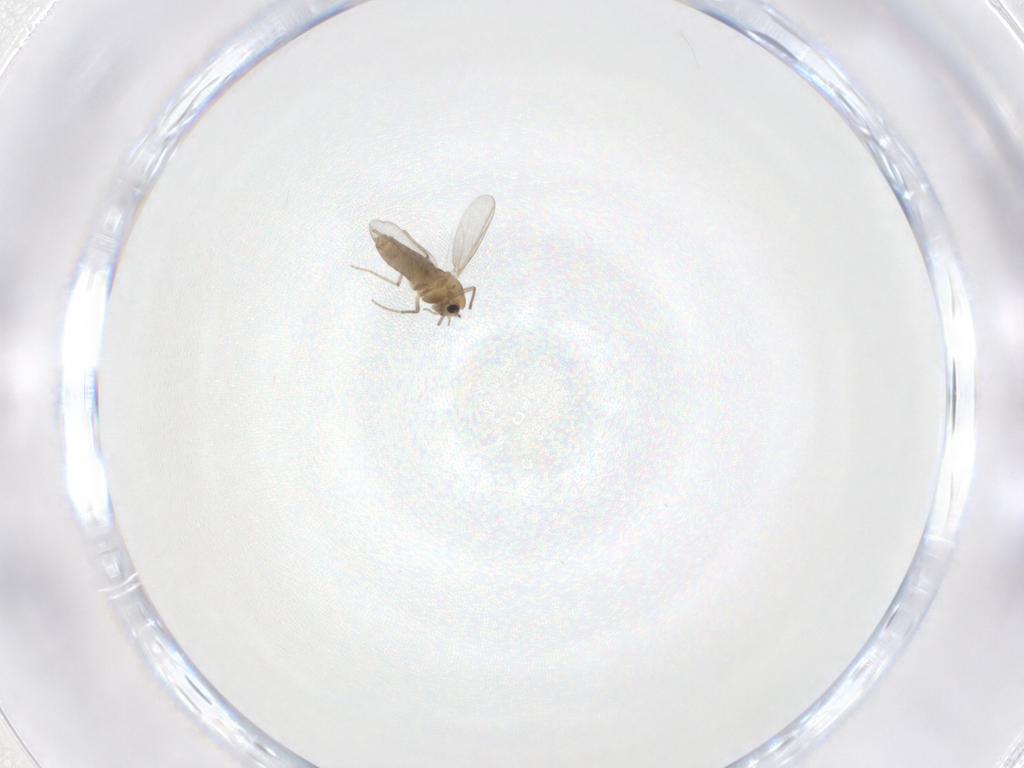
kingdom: Animalia
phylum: Arthropoda
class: Insecta
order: Diptera
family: Chironomidae
